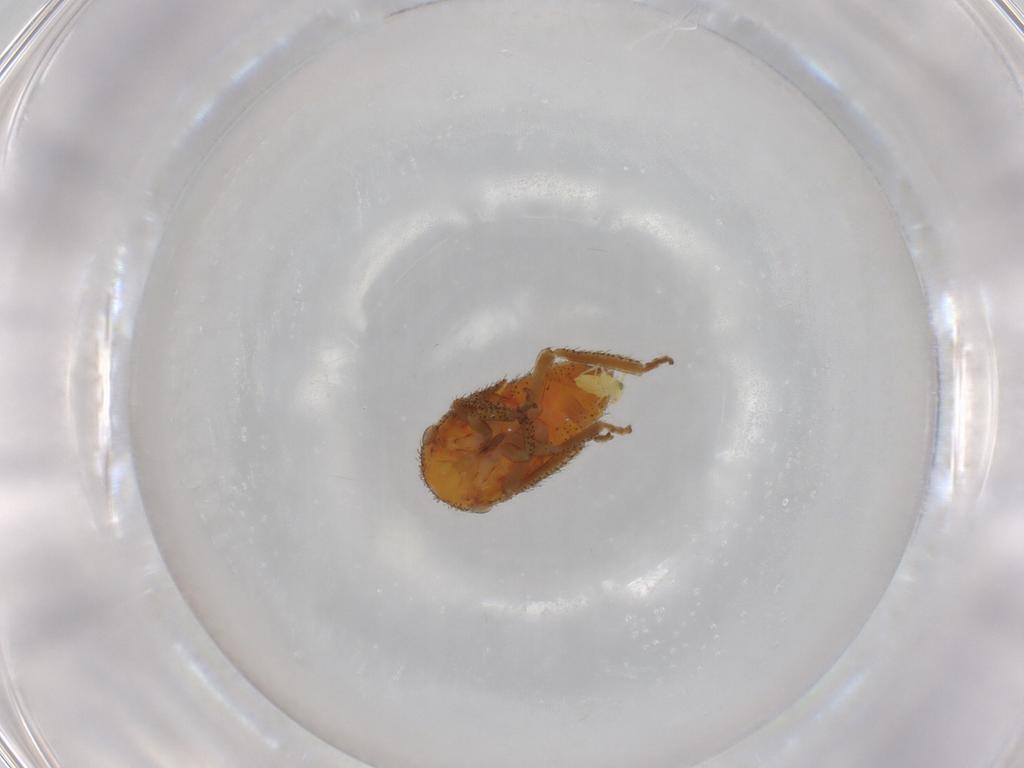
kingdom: Animalia
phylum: Arthropoda
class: Insecta
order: Hemiptera
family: Cicadellidae
